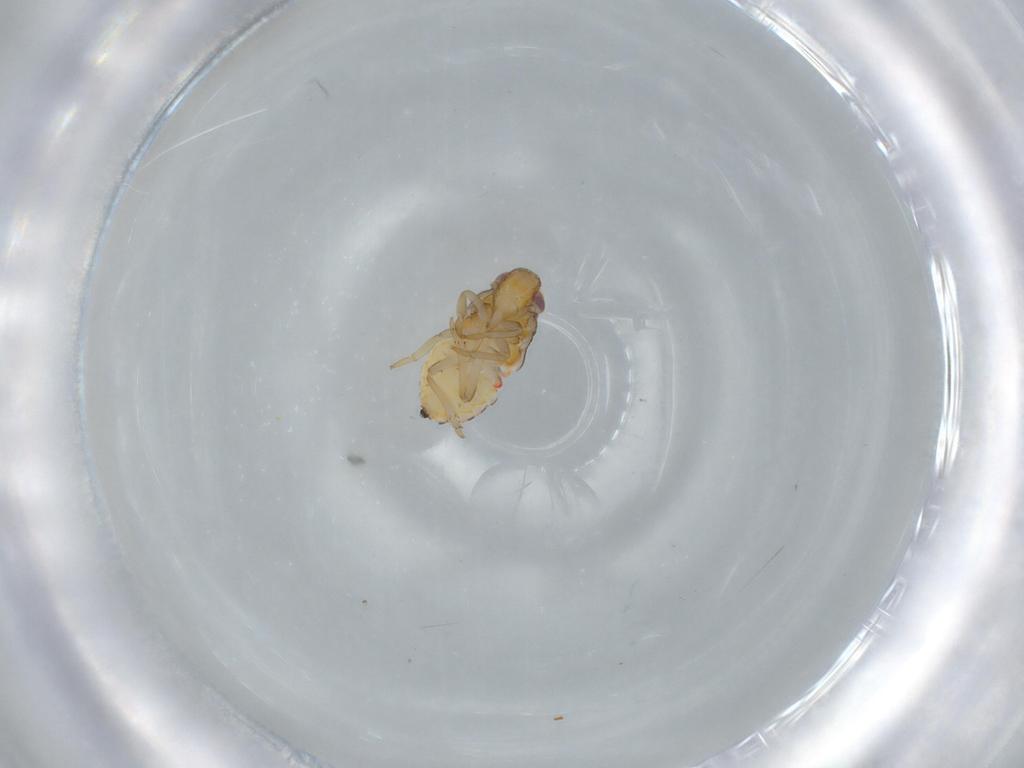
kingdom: Animalia
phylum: Arthropoda
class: Insecta
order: Hemiptera
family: Issidae
